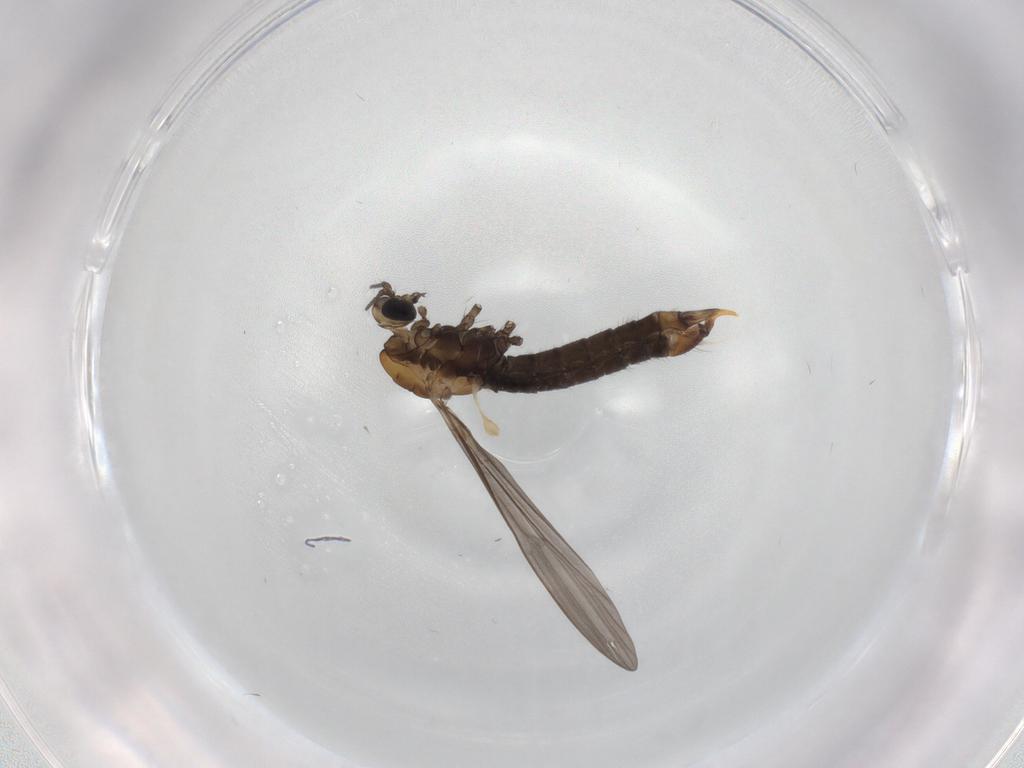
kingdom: Animalia
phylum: Arthropoda
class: Insecta
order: Diptera
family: Limoniidae
